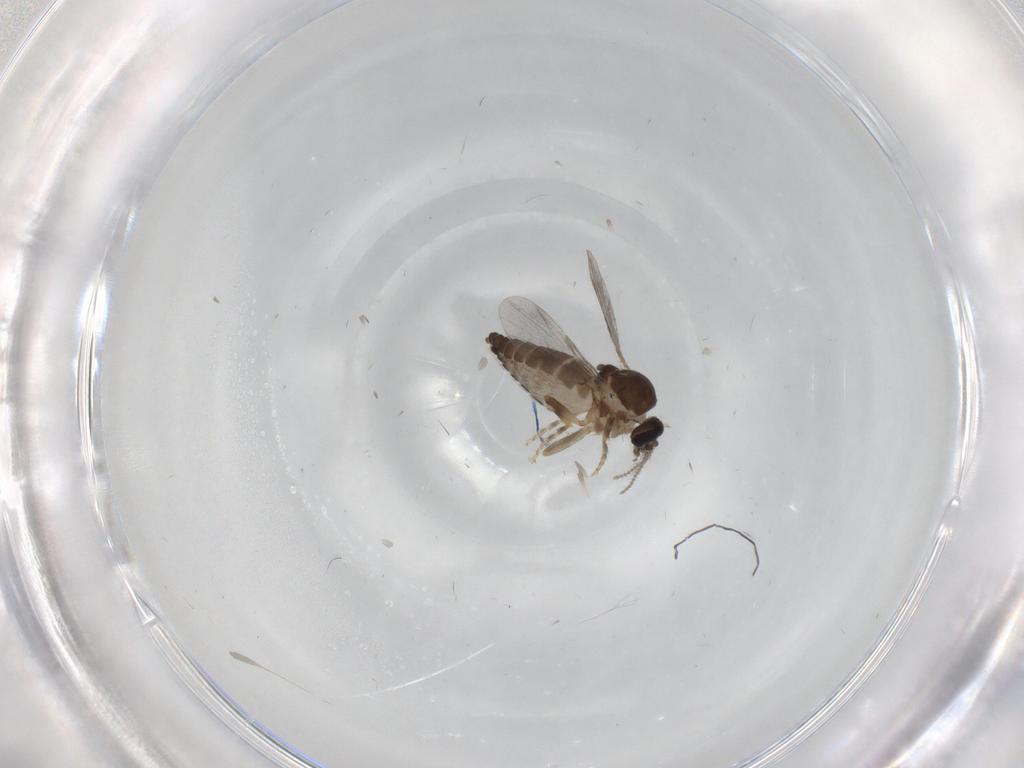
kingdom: Animalia
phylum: Arthropoda
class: Insecta
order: Diptera
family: Ceratopogonidae
